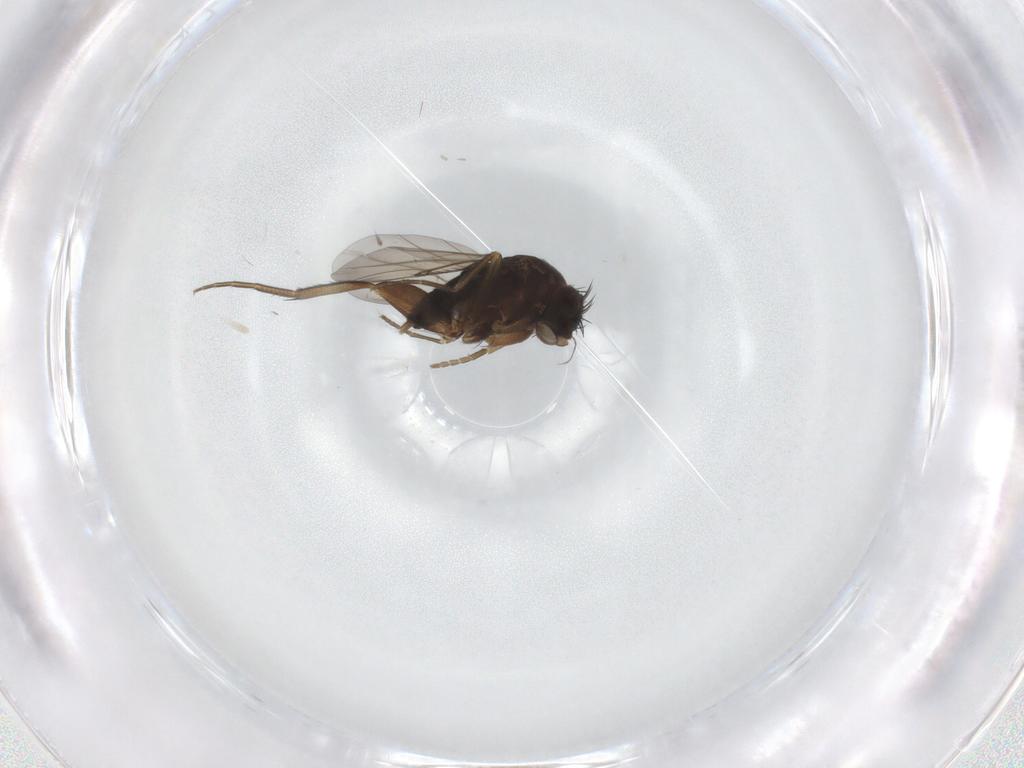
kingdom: Animalia
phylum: Arthropoda
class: Insecta
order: Diptera
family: Phoridae
